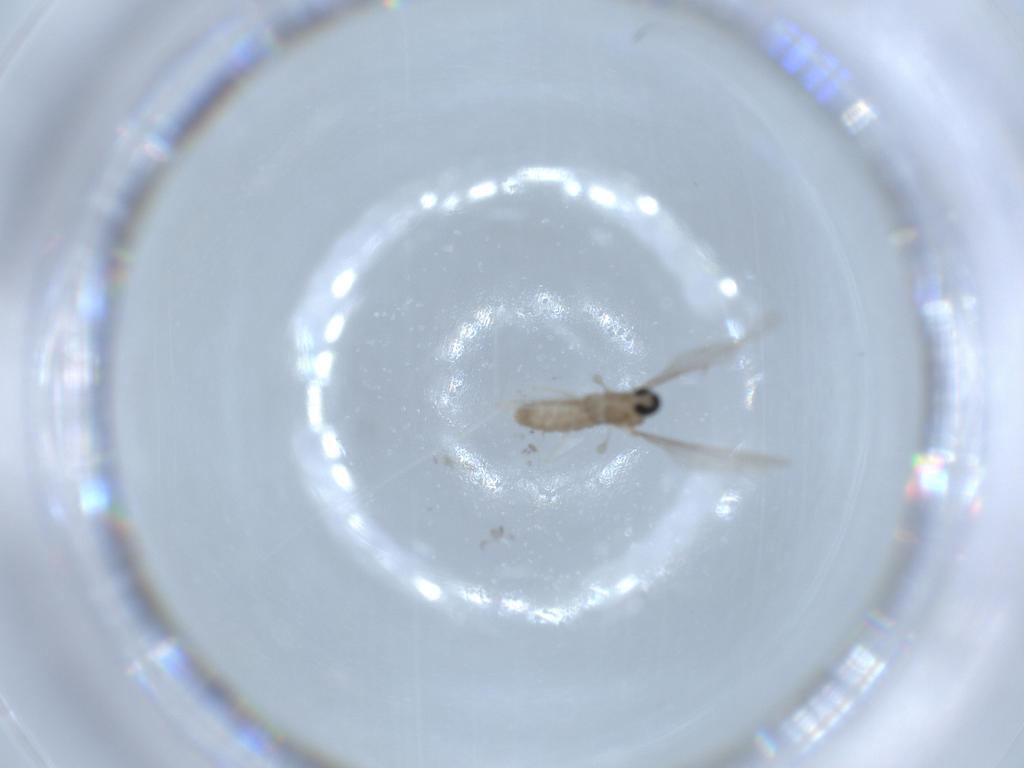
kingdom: Animalia
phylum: Arthropoda
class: Insecta
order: Diptera
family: Cecidomyiidae
